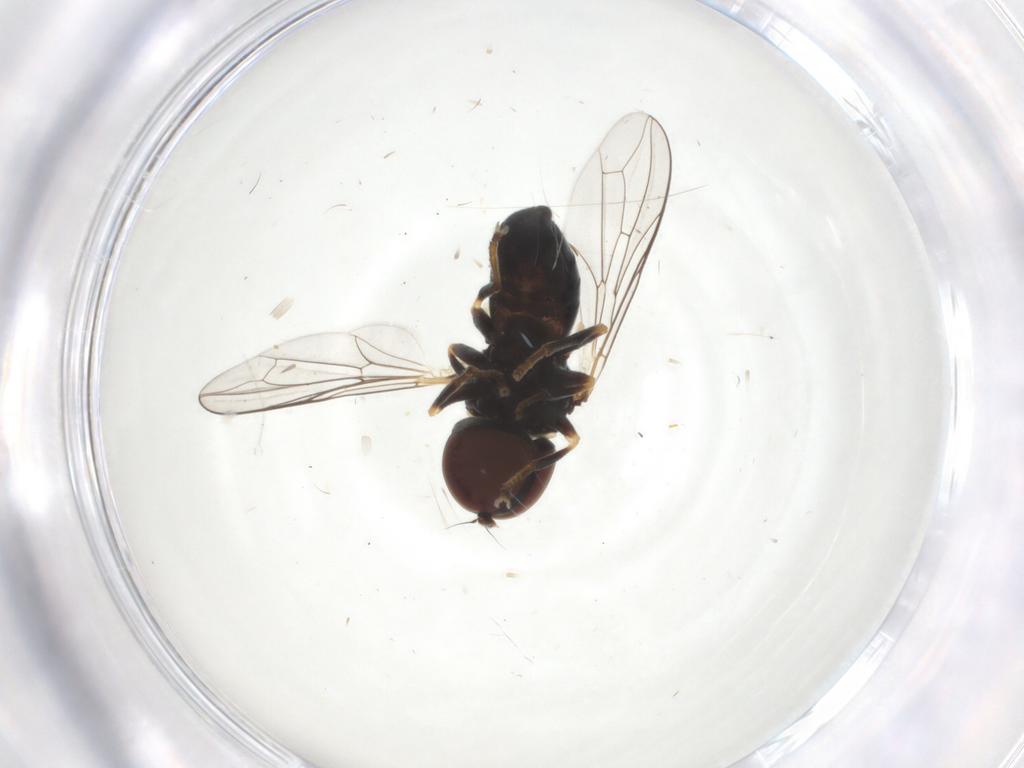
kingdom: Animalia
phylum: Arthropoda
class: Insecta
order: Diptera
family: Pipunculidae
